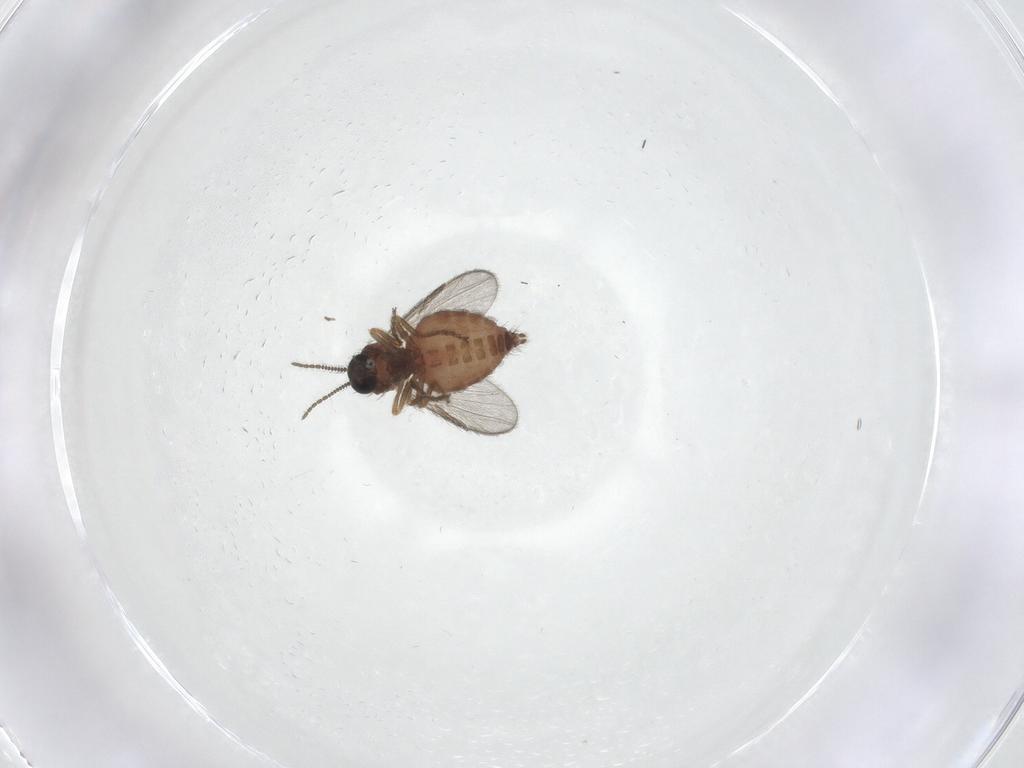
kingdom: Animalia
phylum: Arthropoda
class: Insecta
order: Diptera
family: Ceratopogonidae
